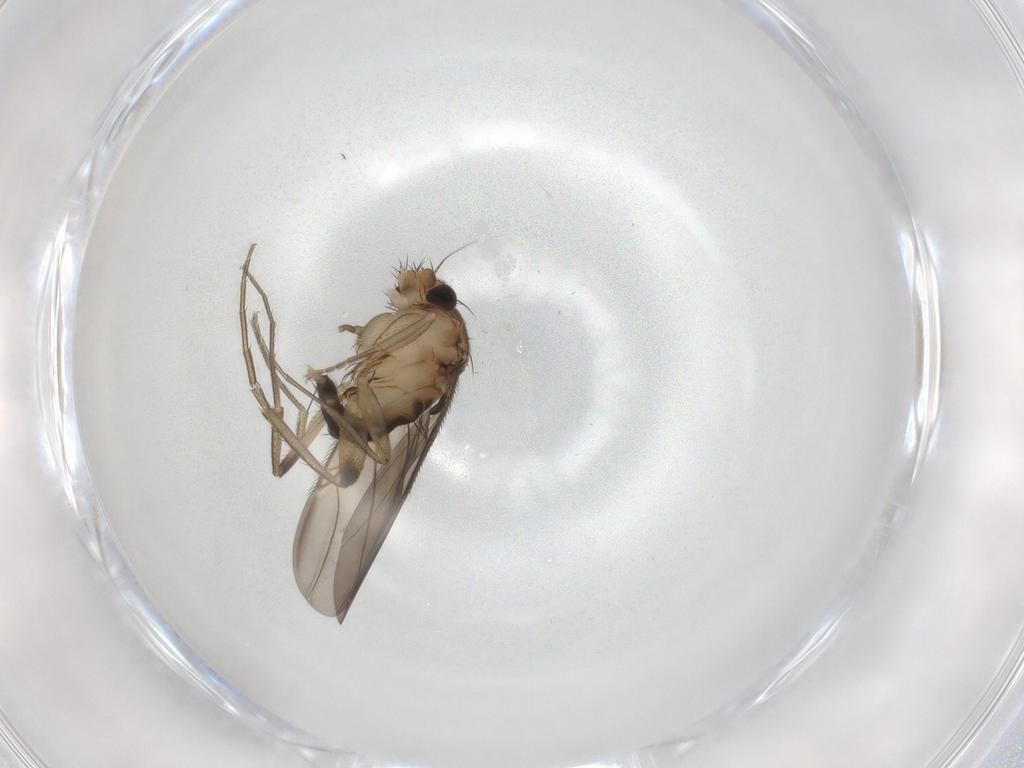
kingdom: Animalia
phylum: Arthropoda
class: Insecta
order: Diptera
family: Phoridae
